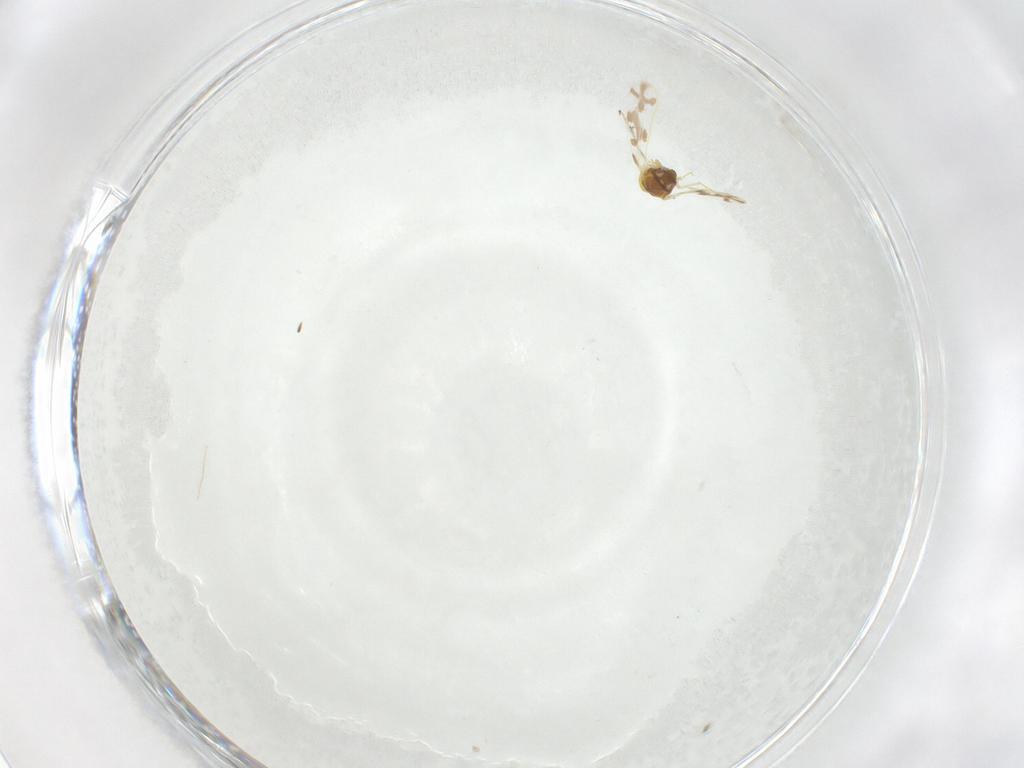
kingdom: Animalia
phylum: Arthropoda
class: Insecta
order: Hemiptera
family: Aleyrodidae
